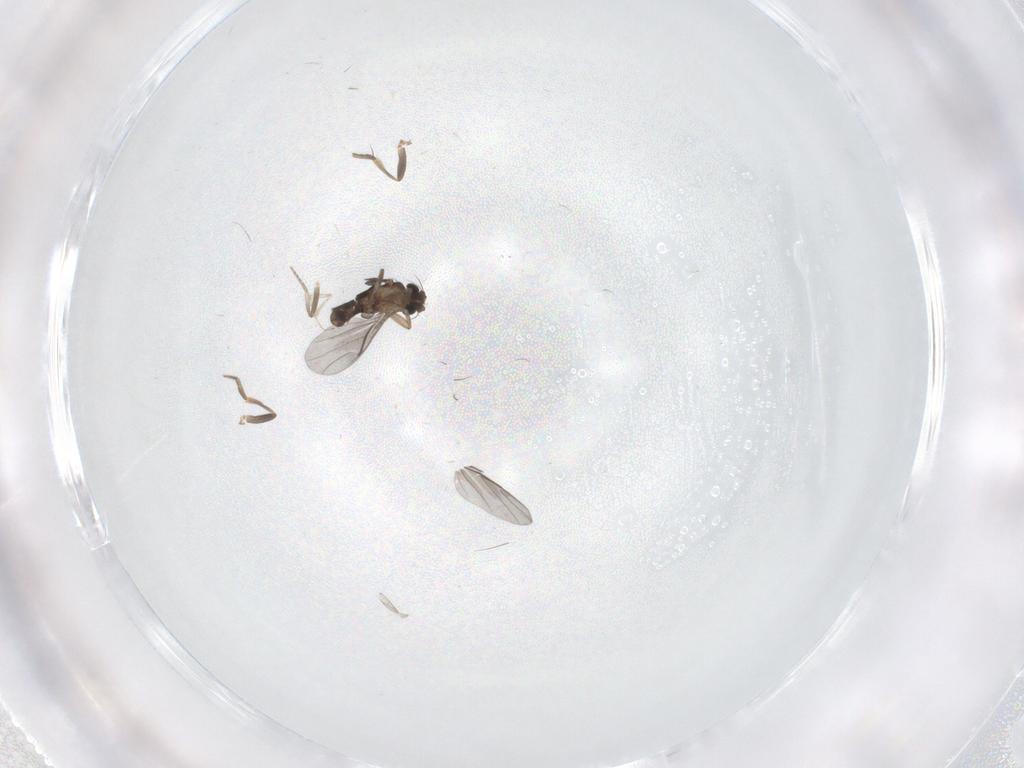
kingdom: Animalia
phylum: Arthropoda
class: Insecta
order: Diptera
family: Cecidomyiidae
